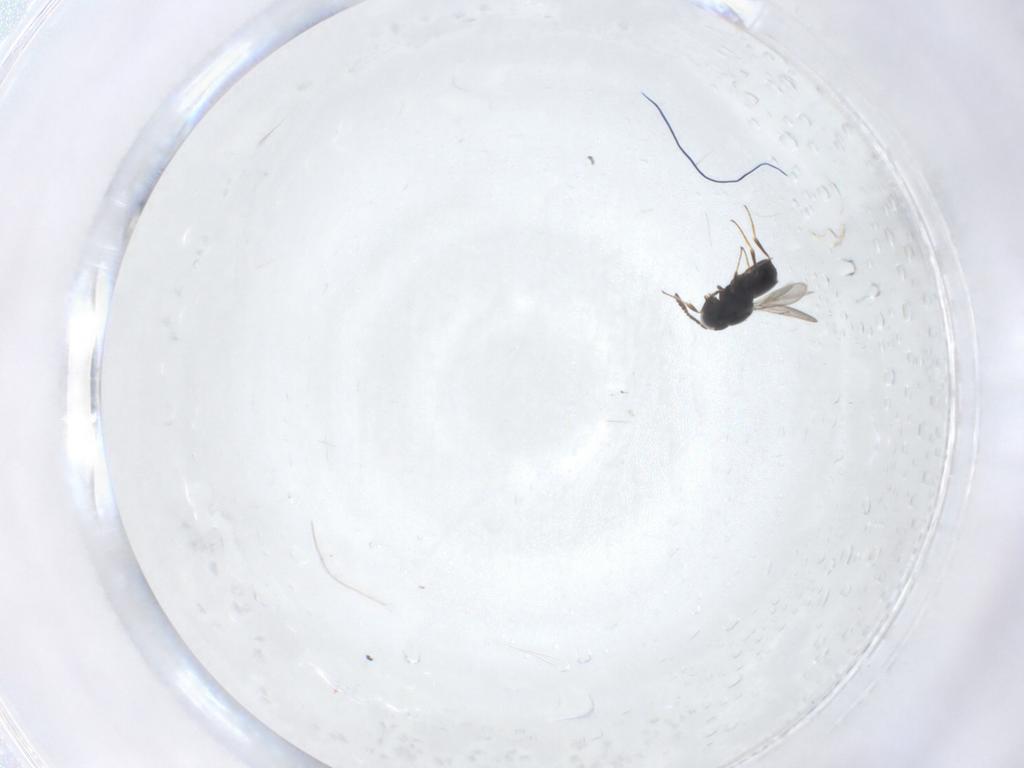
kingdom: Animalia
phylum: Arthropoda
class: Insecta
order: Hymenoptera
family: Scelionidae
